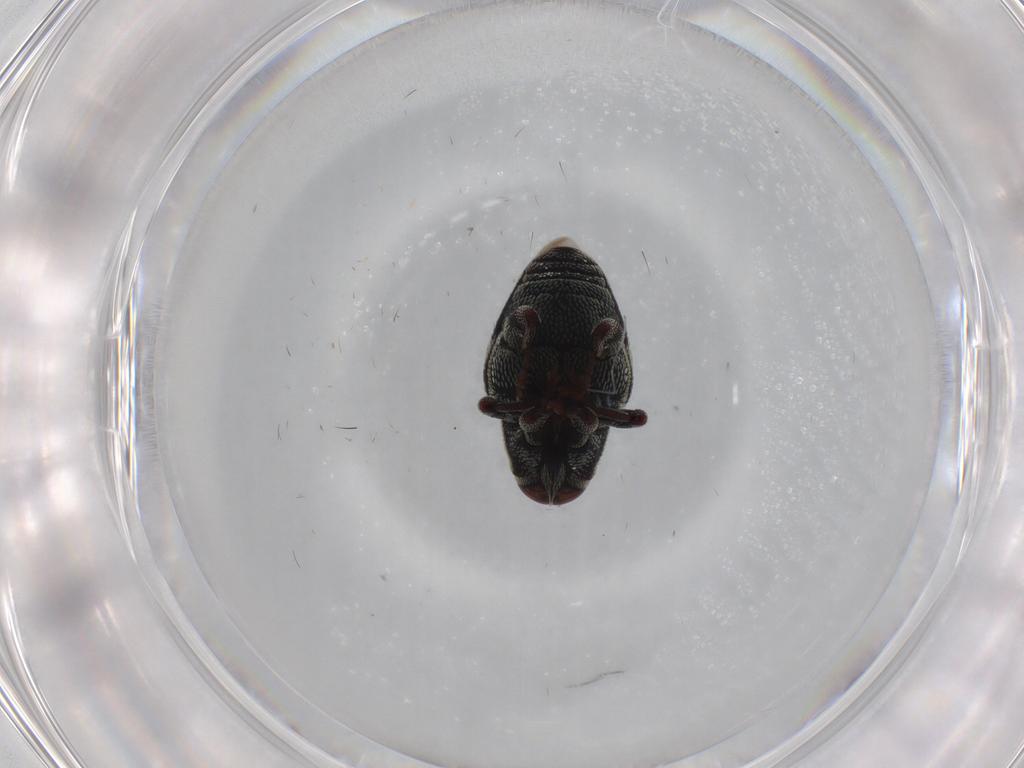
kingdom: Animalia
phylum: Arthropoda
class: Insecta
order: Coleoptera
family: Curculionidae
